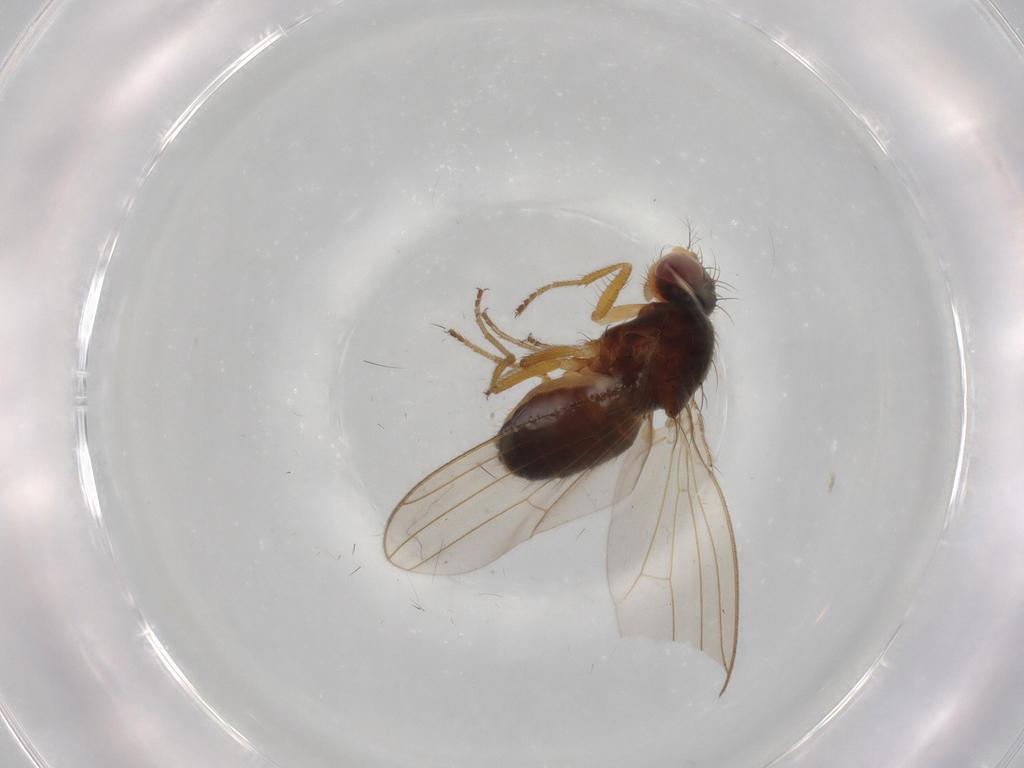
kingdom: Animalia
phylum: Arthropoda
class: Insecta
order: Diptera
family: Drosophilidae
